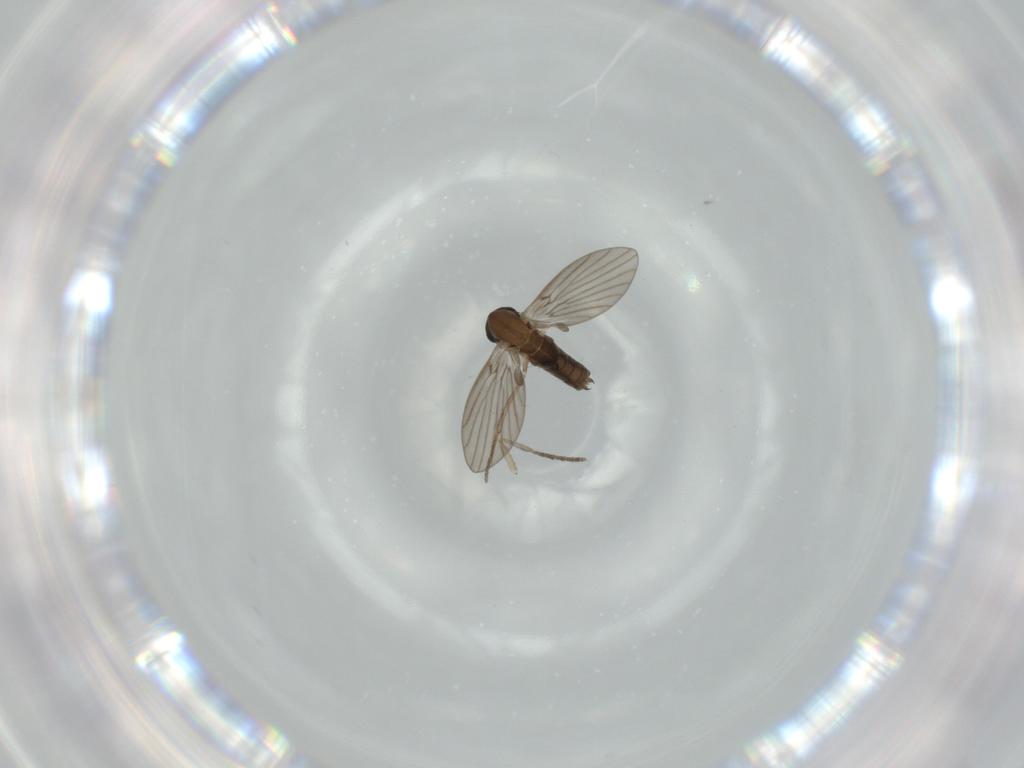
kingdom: Animalia
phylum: Arthropoda
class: Insecta
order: Diptera
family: Psychodidae
